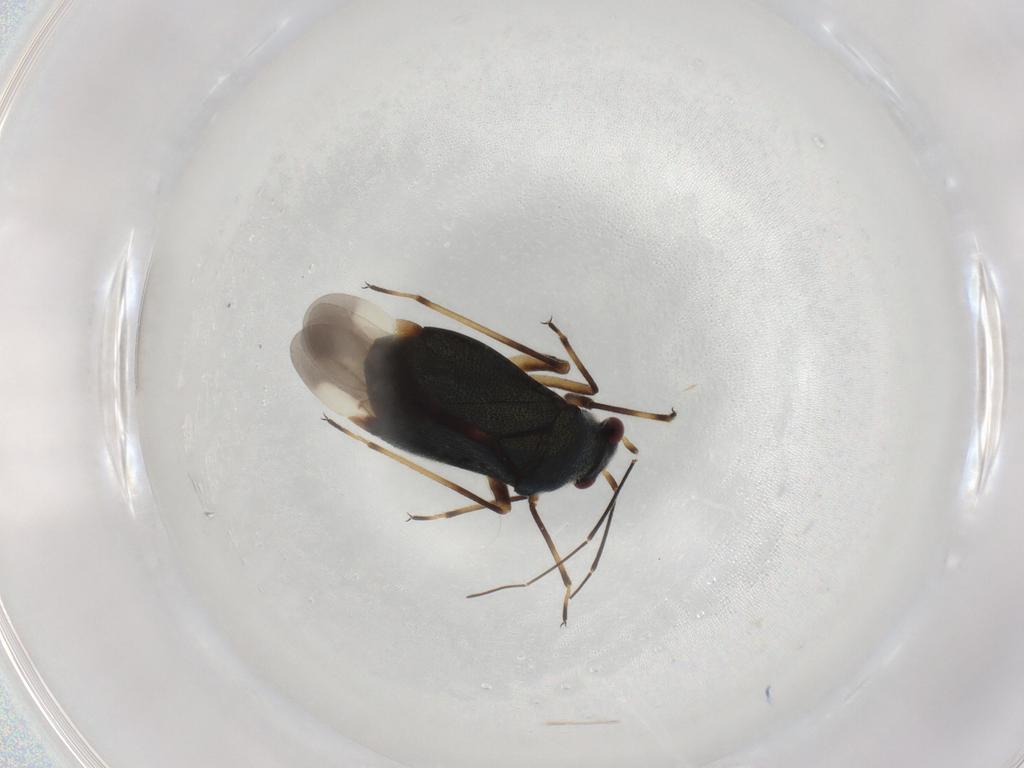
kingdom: Animalia
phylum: Arthropoda
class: Insecta
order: Hemiptera
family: Miridae
